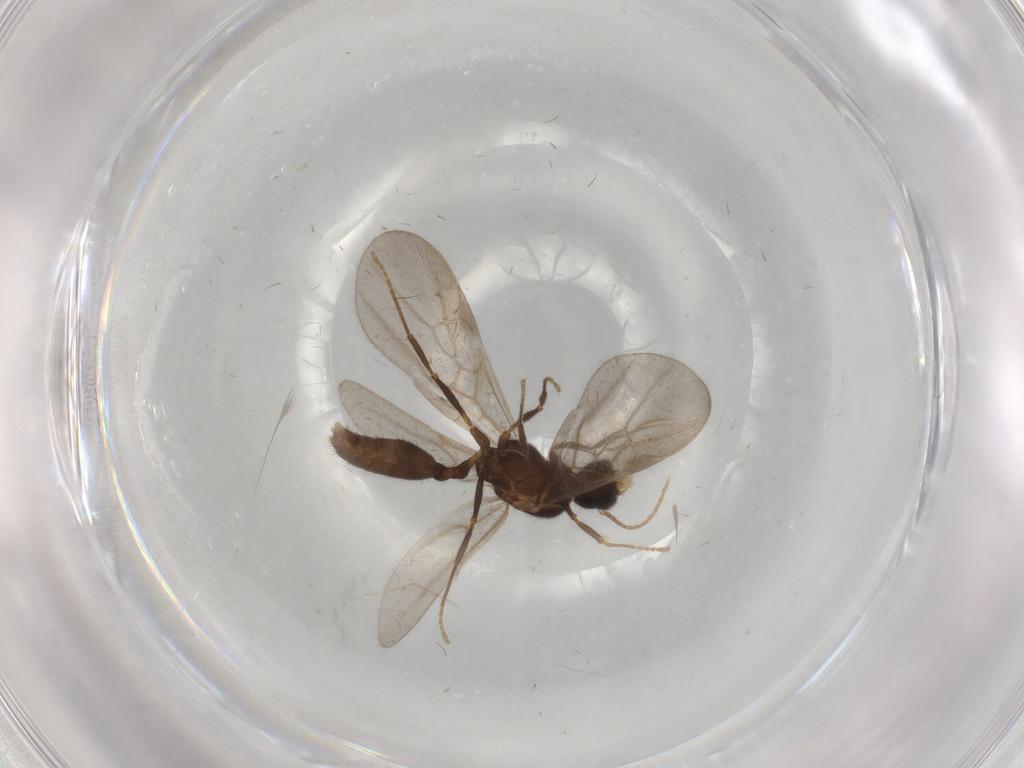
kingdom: Animalia
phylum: Arthropoda
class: Insecta
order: Hymenoptera
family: Formicidae
